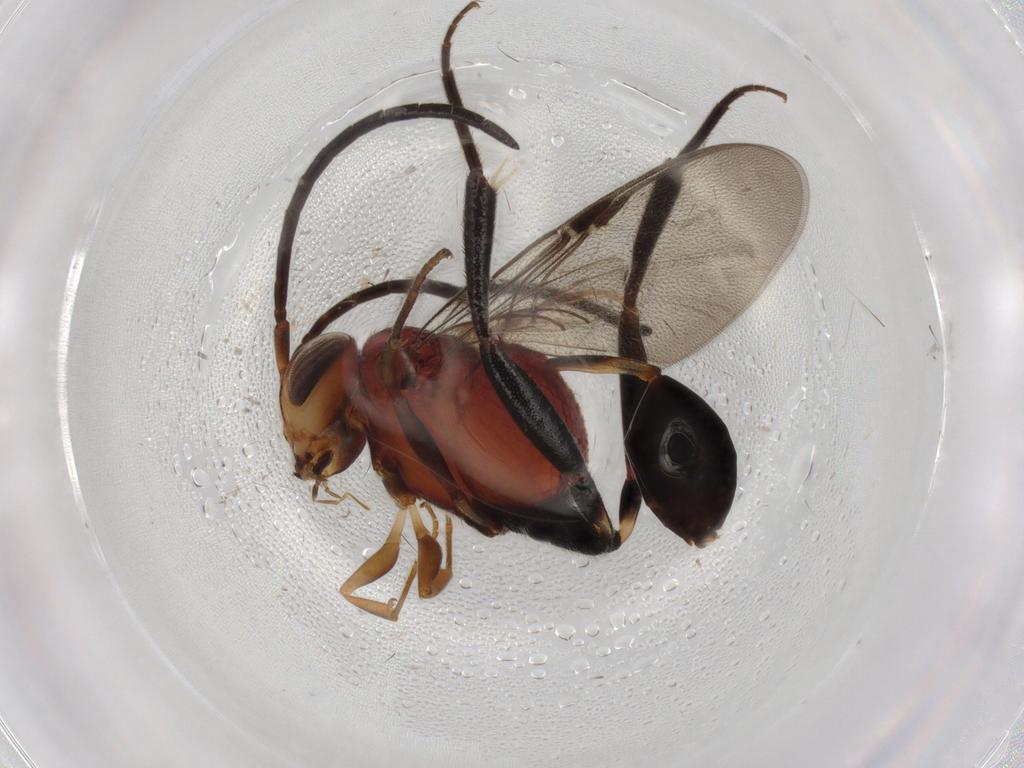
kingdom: Animalia
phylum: Arthropoda
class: Insecta
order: Diptera
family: Cecidomyiidae
